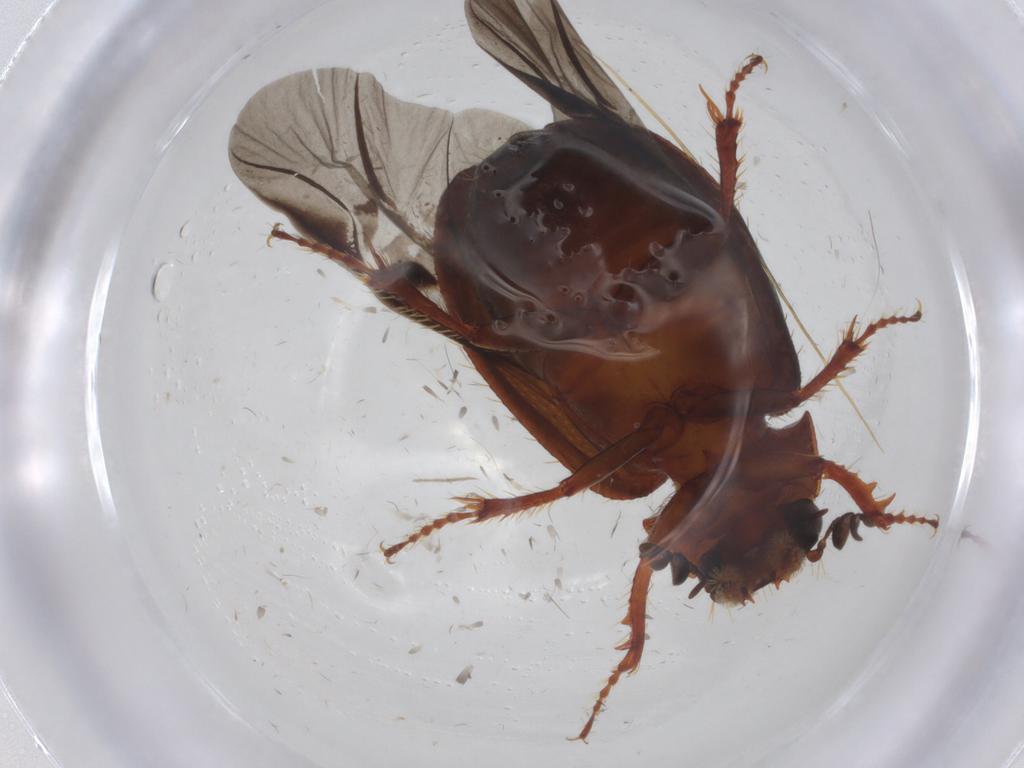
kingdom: Animalia
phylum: Arthropoda
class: Insecta
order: Coleoptera
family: Hybosoridae
